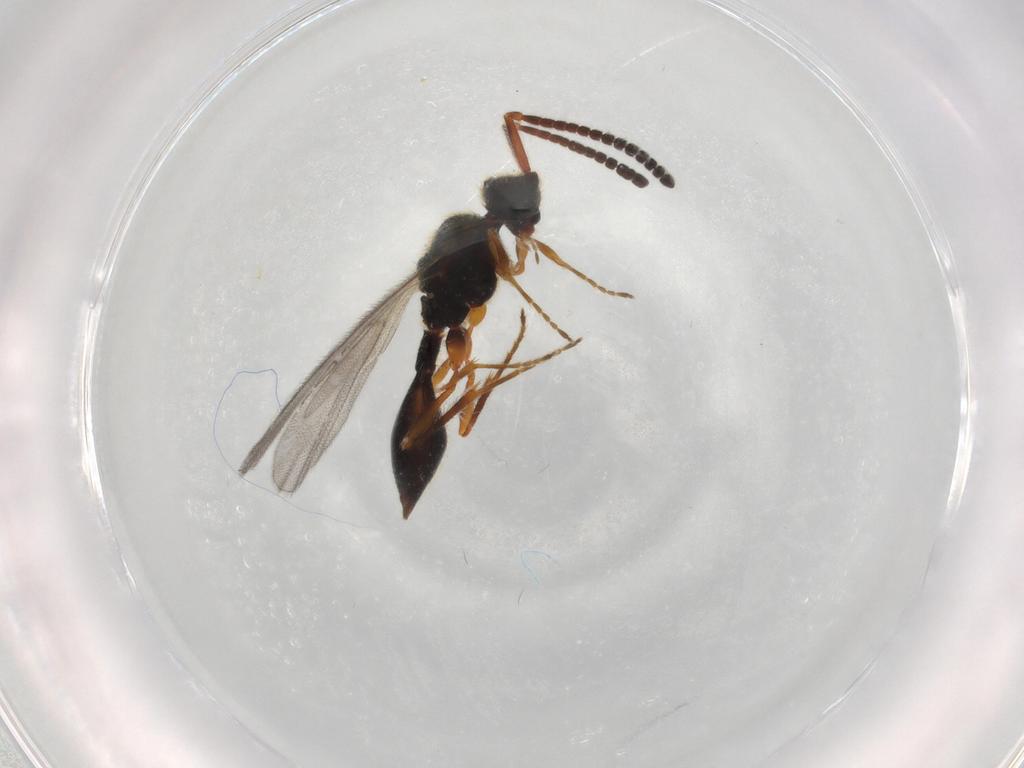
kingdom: Animalia
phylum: Arthropoda
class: Insecta
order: Hymenoptera
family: Diapriidae
